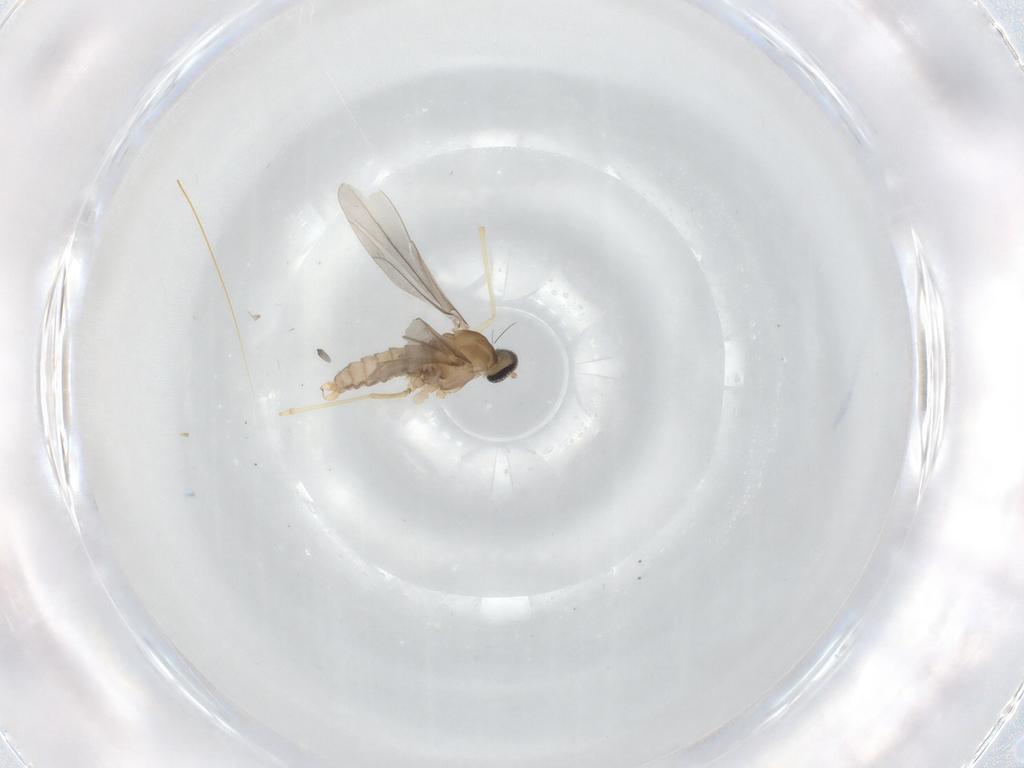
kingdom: Animalia
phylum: Arthropoda
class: Insecta
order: Diptera
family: Cecidomyiidae
